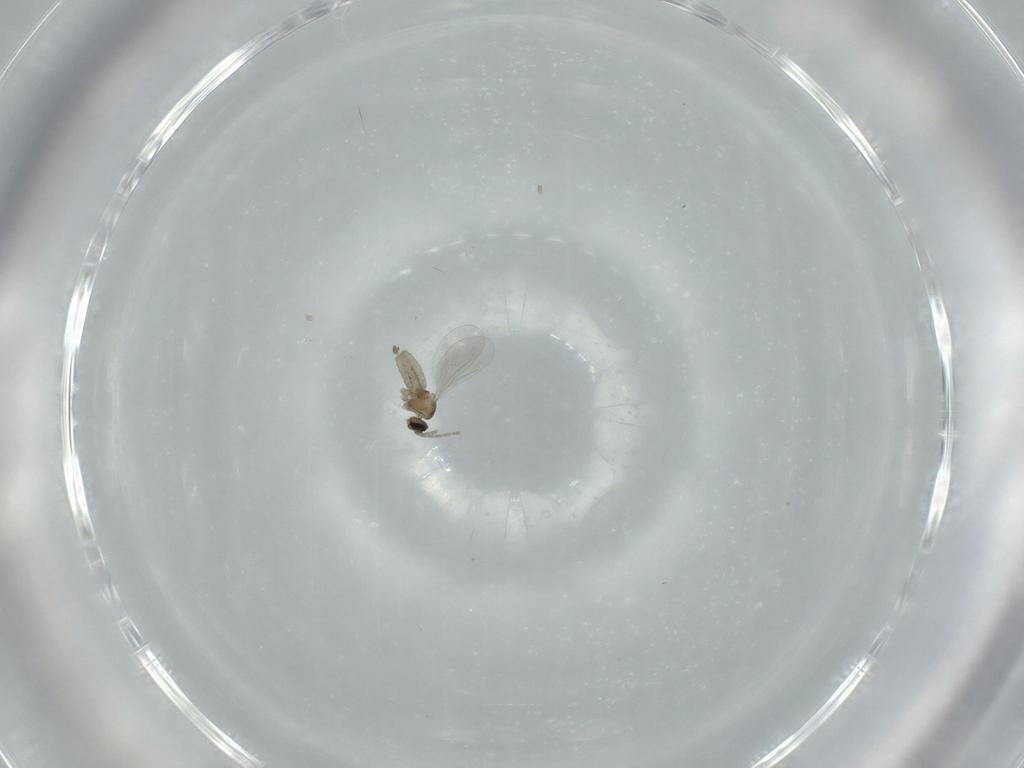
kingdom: Animalia
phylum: Arthropoda
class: Insecta
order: Diptera
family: Cecidomyiidae
